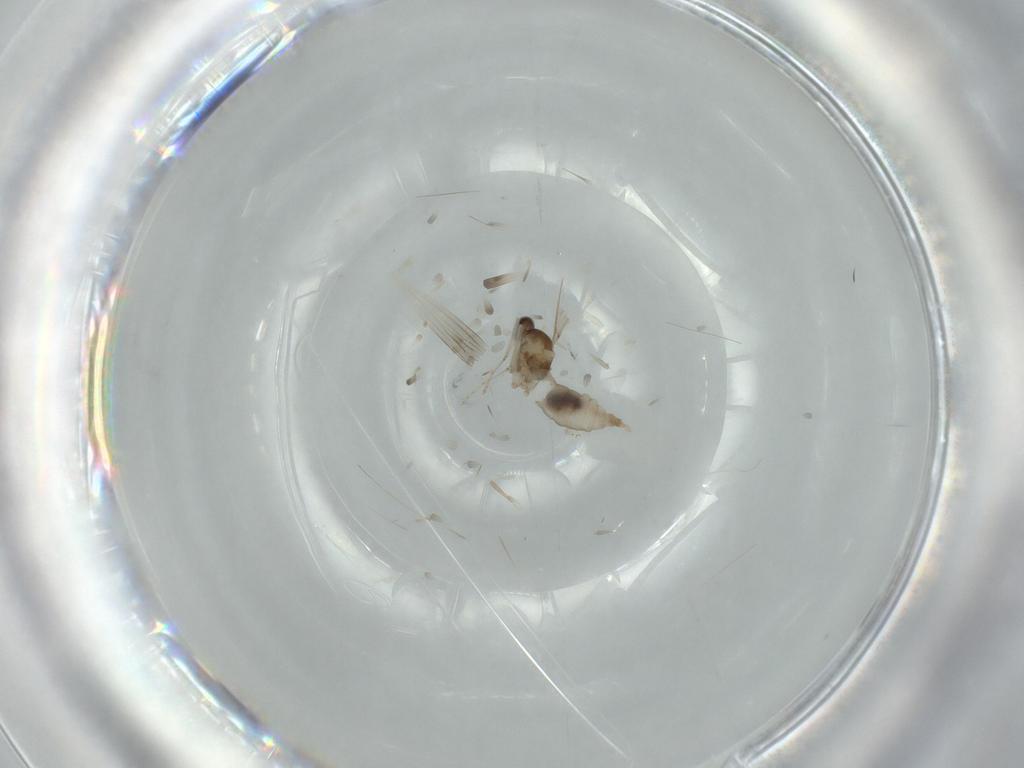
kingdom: Animalia
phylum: Arthropoda
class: Insecta
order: Diptera
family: Cecidomyiidae
